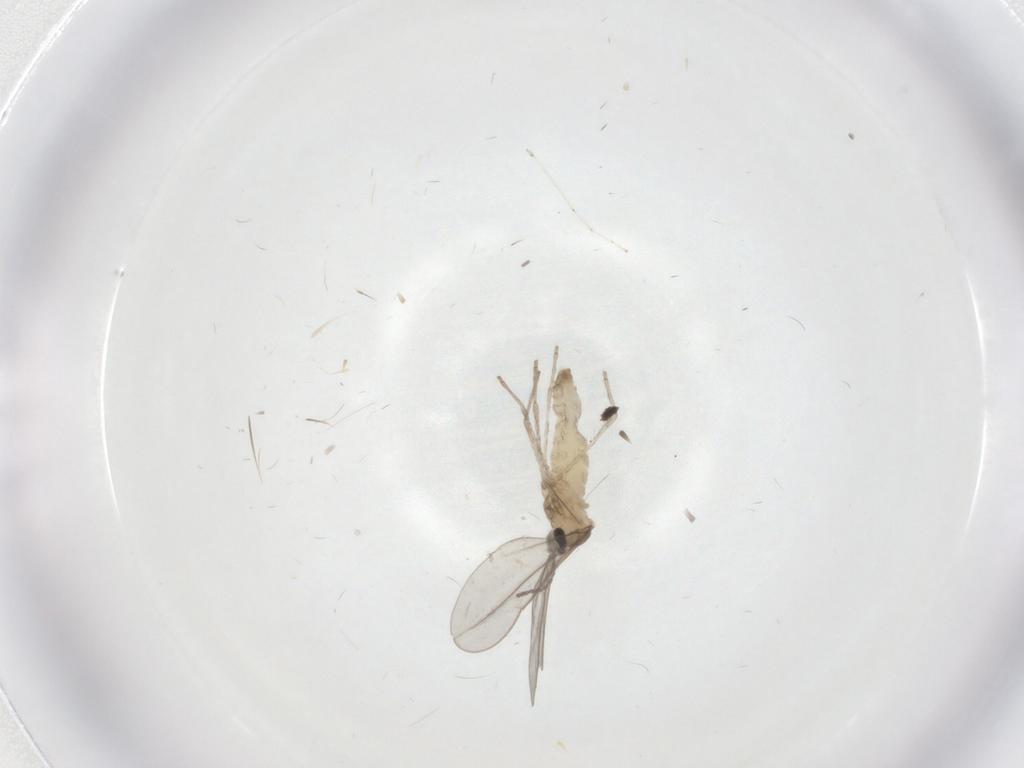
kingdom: Animalia
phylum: Arthropoda
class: Insecta
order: Diptera
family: Cecidomyiidae
